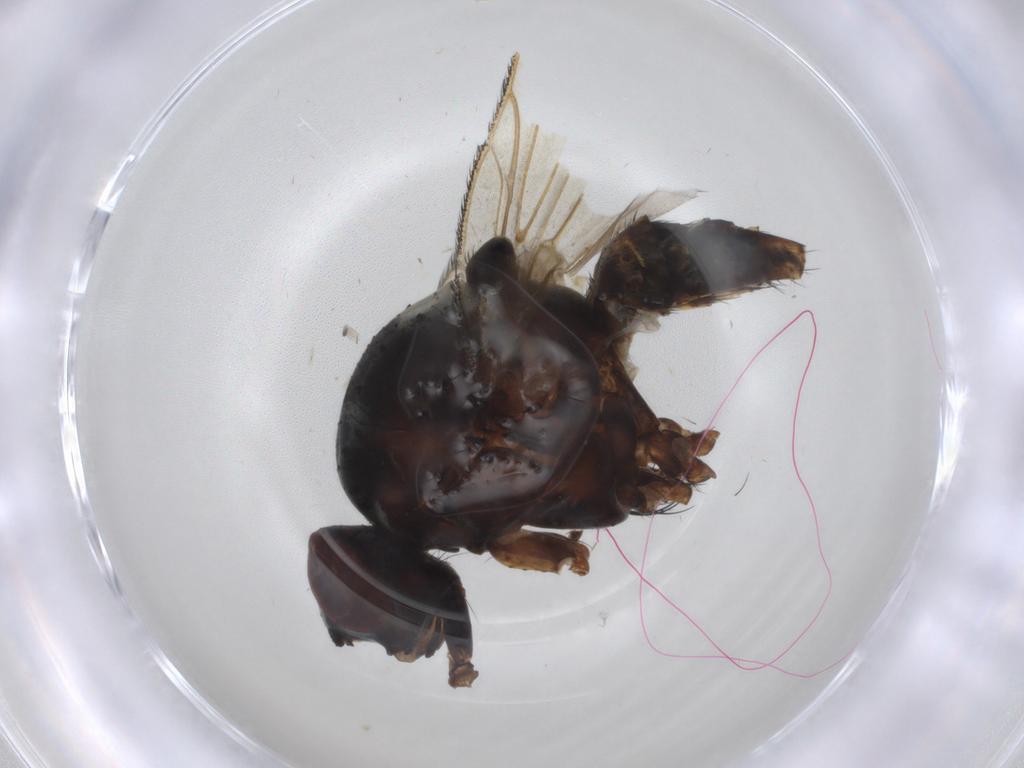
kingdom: Animalia
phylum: Arthropoda
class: Insecta
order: Diptera
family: Anthomyiidae
